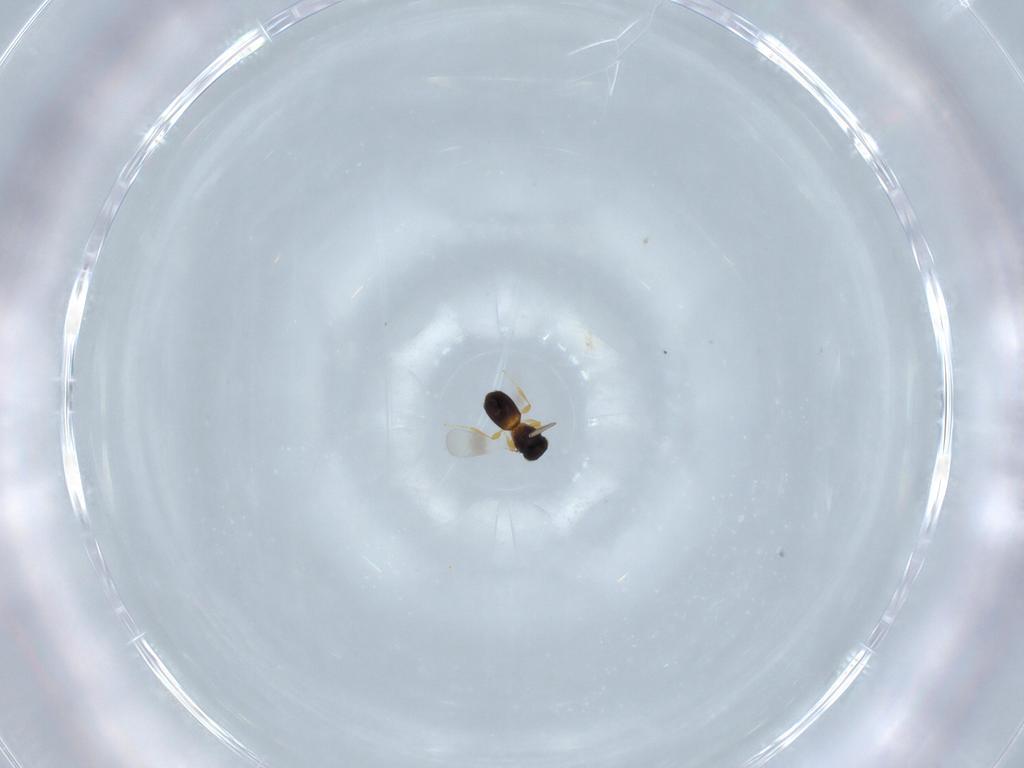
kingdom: Animalia
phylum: Arthropoda
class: Insecta
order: Hymenoptera
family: Platygastridae
